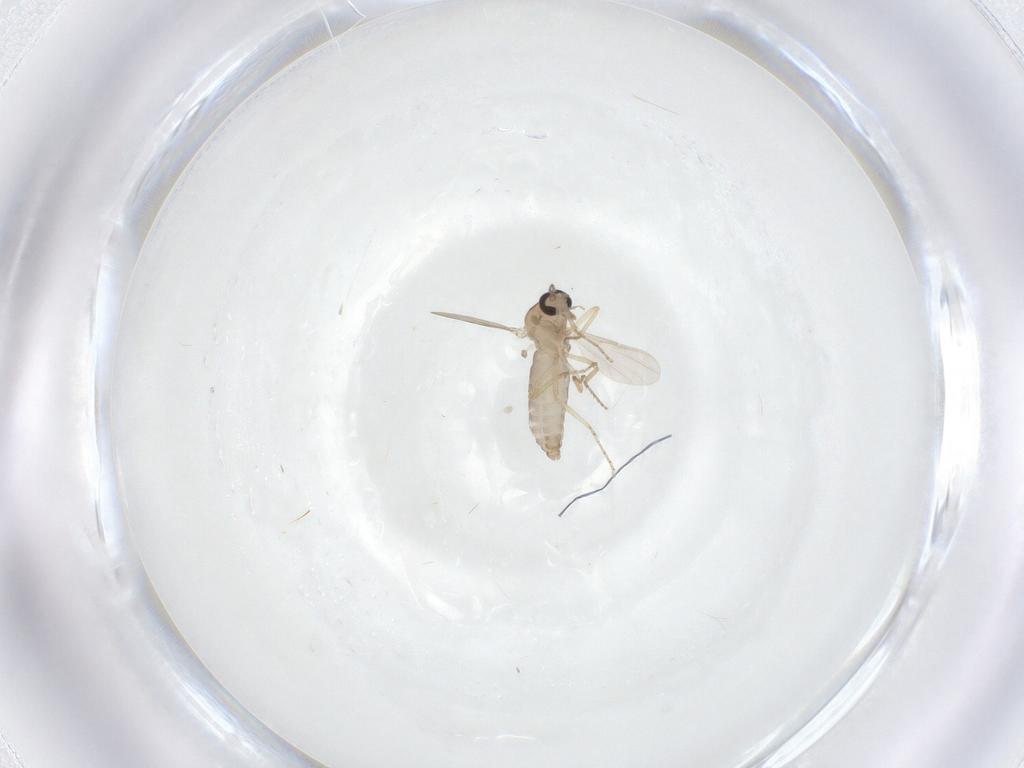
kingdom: Animalia
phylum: Arthropoda
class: Insecta
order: Diptera
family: Ceratopogonidae
